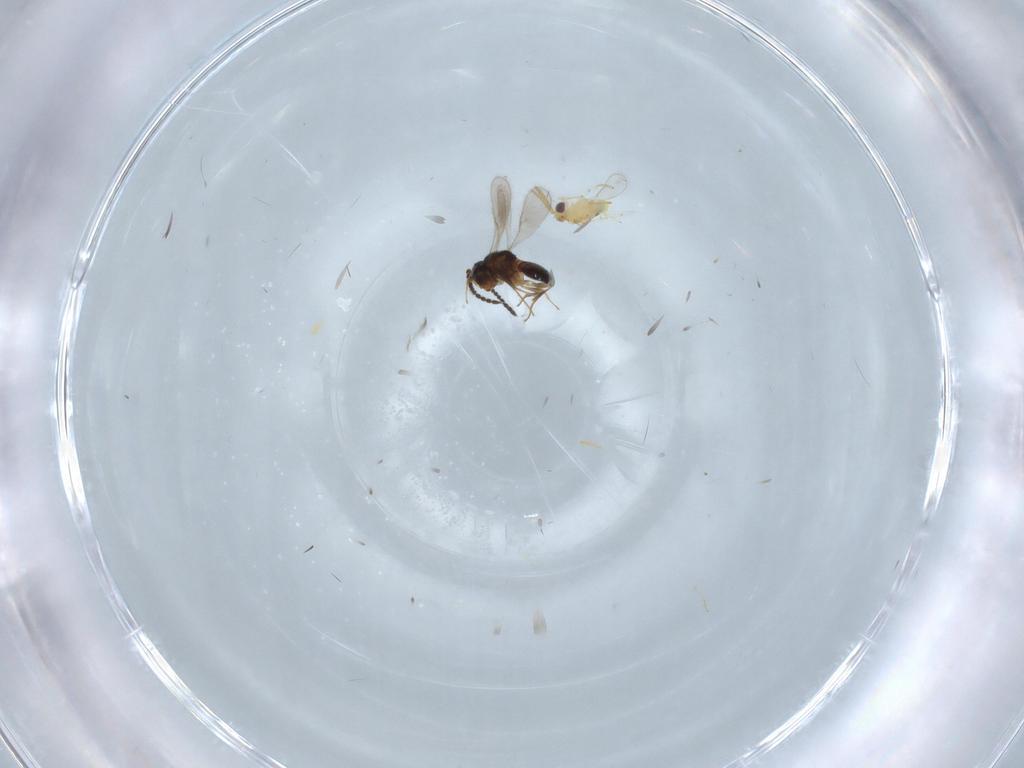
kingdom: Animalia
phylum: Arthropoda
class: Insecta
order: Hymenoptera
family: Aphelinidae
